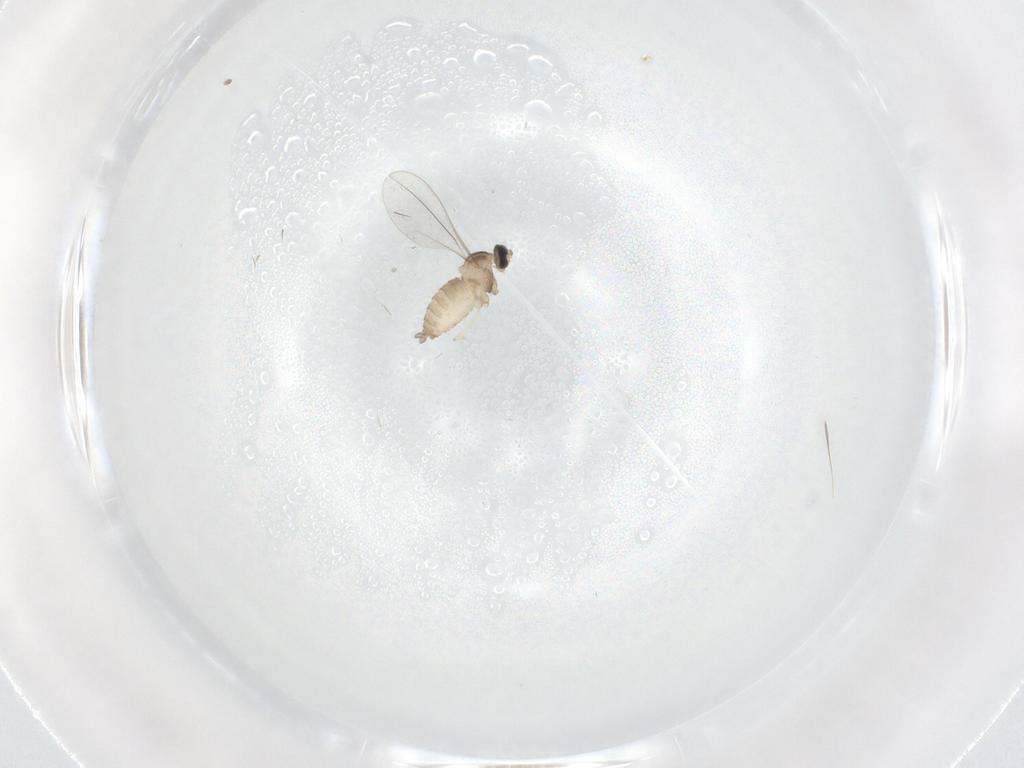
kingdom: Animalia
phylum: Arthropoda
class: Insecta
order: Diptera
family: Cecidomyiidae
